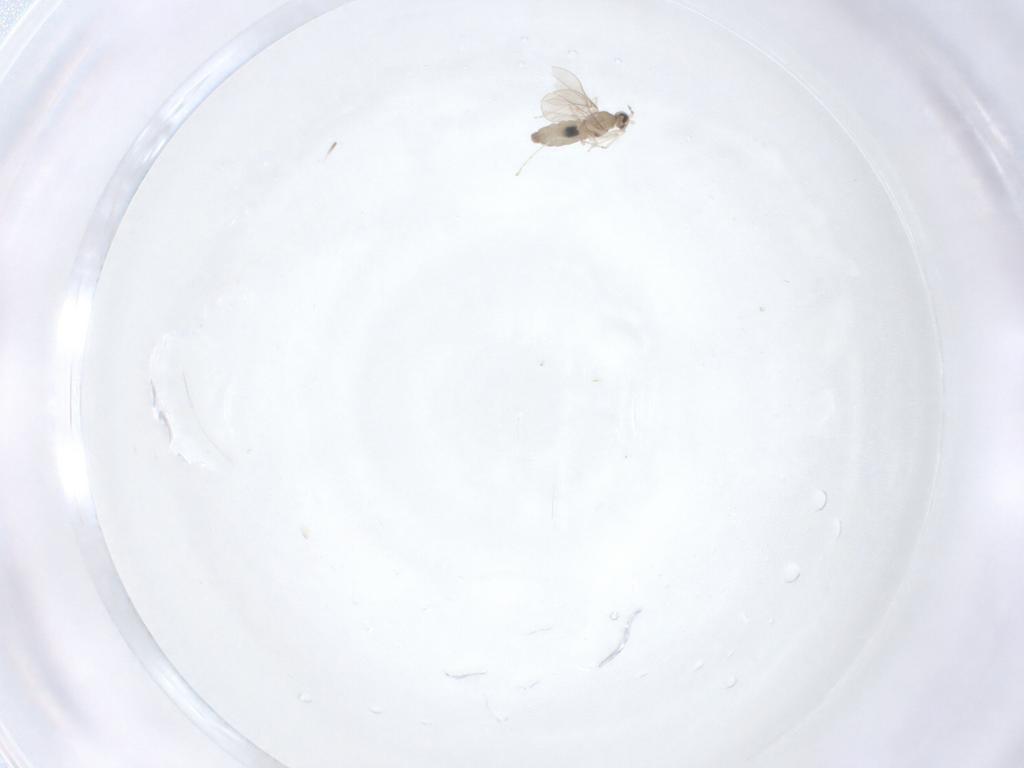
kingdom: Animalia
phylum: Arthropoda
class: Insecta
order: Diptera
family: Cecidomyiidae
